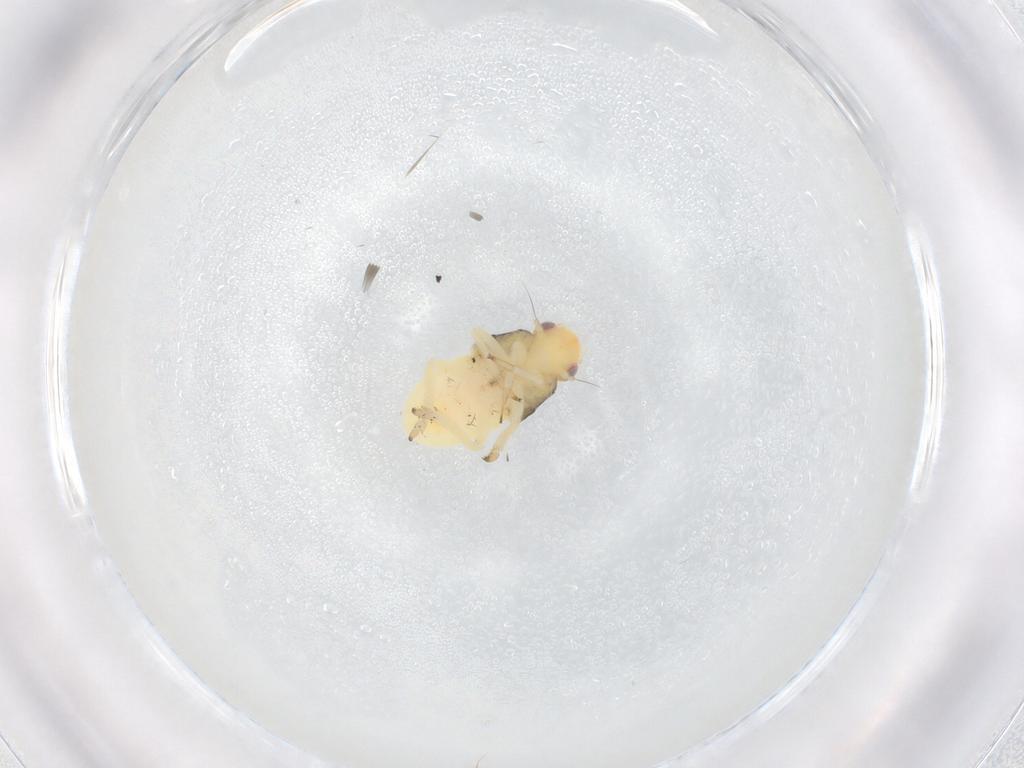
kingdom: Animalia
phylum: Arthropoda
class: Insecta
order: Hemiptera
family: Caliscelidae
